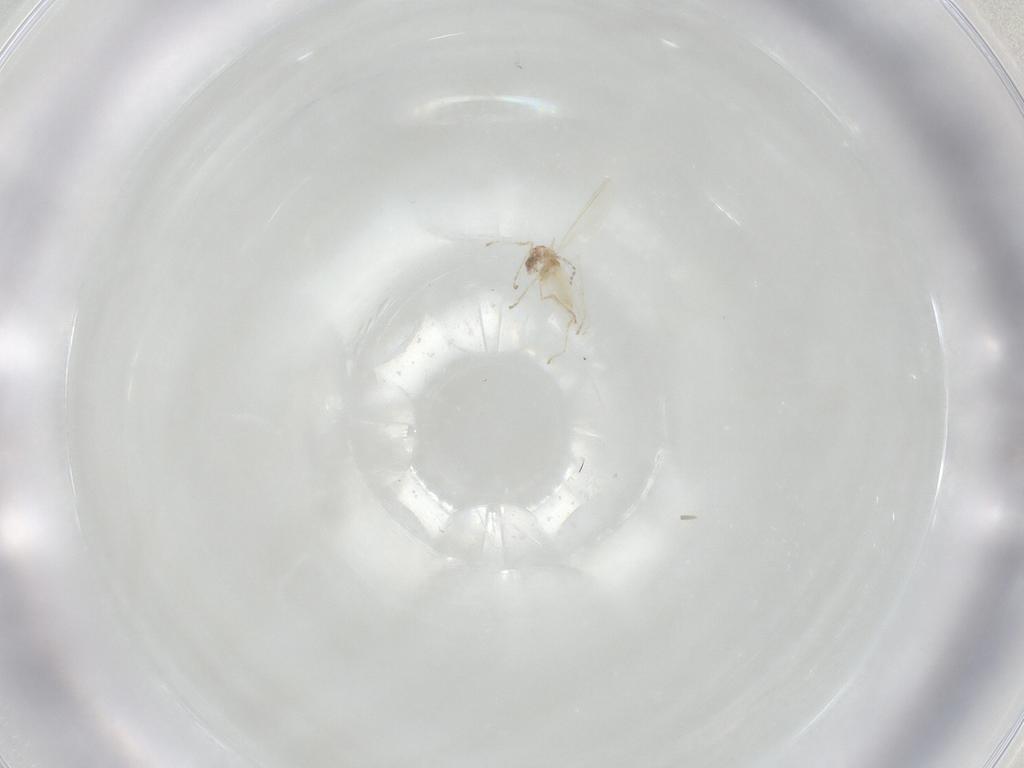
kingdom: Animalia
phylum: Arthropoda
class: Insecta
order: Diptera
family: Cecidomyiidae
